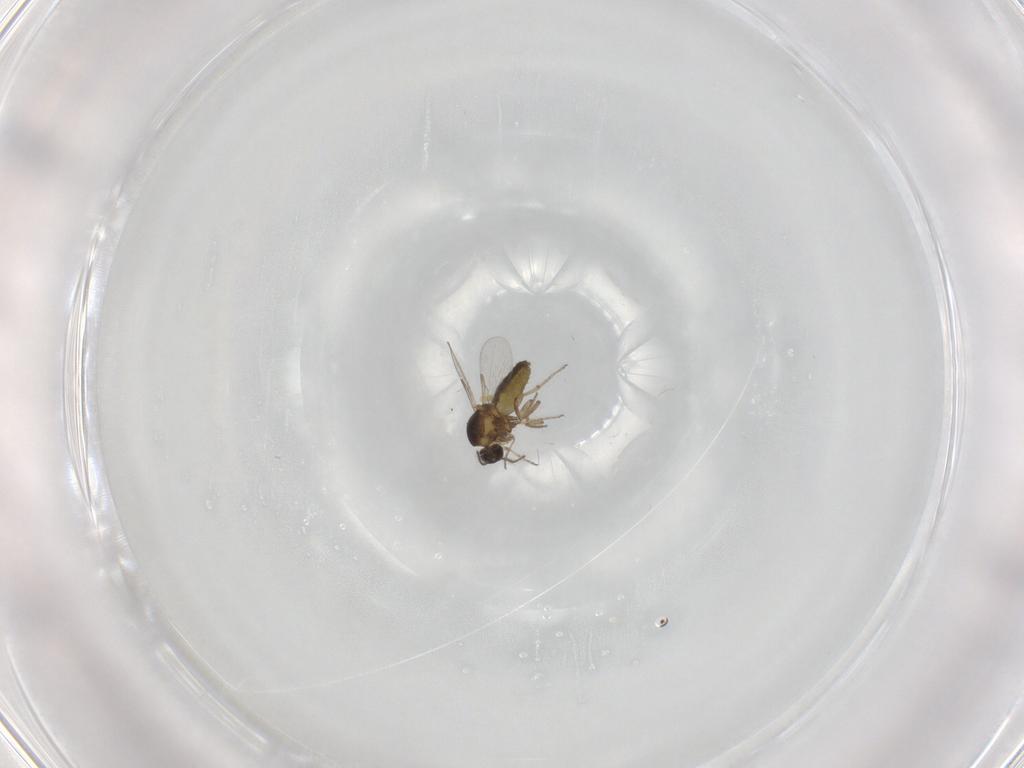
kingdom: Animalia
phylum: Arthropoda
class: Insecta
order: Diptera
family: Ceratopogonidae
